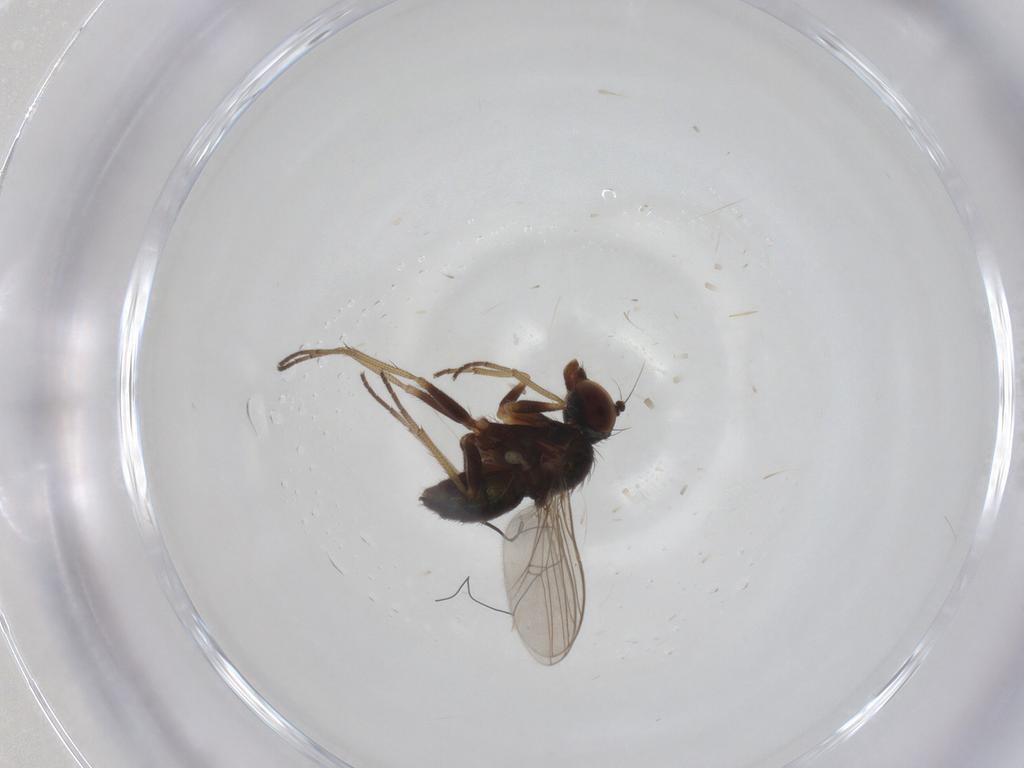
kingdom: Animalia
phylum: Arthropoda
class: Insecta
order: Diptera
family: Dolichopodidae
